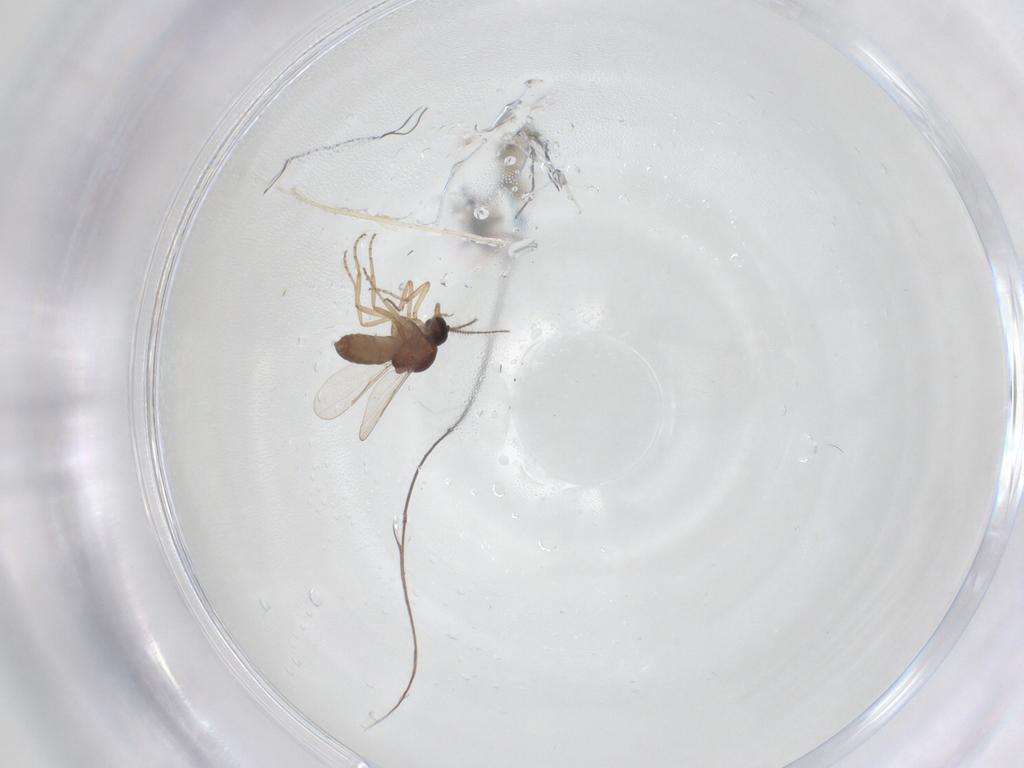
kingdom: Animalia
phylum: Arthropoda
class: Insecta
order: Diptera
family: Ceratopogonidae
